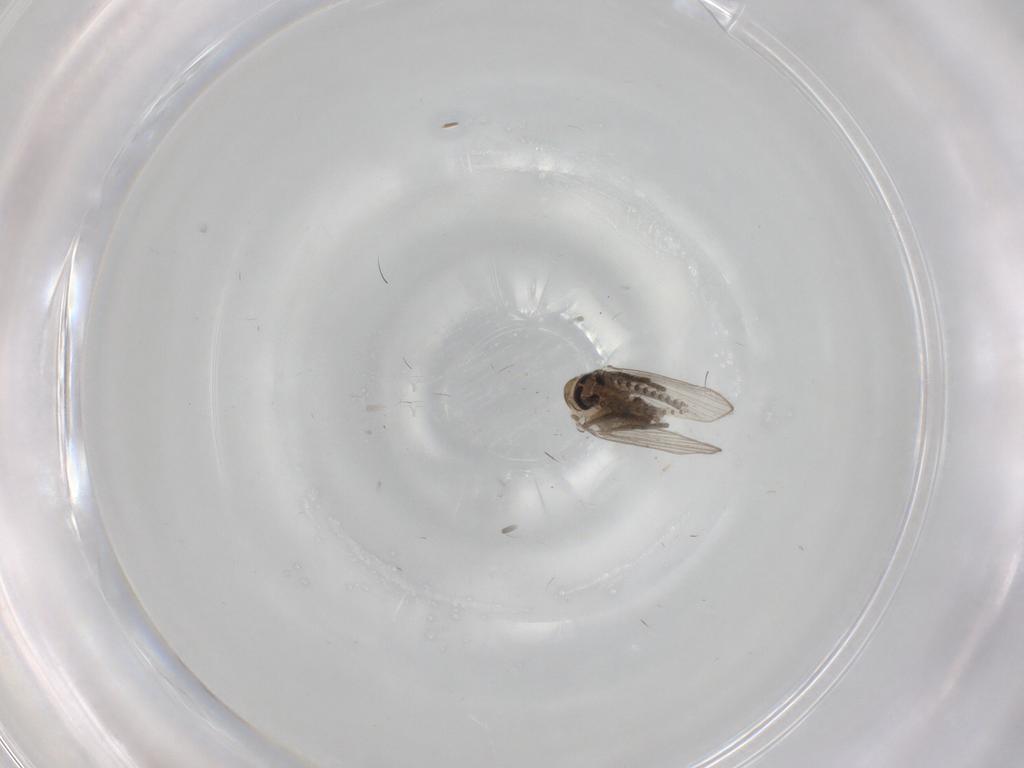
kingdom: Animalia
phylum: Arthropoda
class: Insecta
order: Diptera
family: Psychodidae
